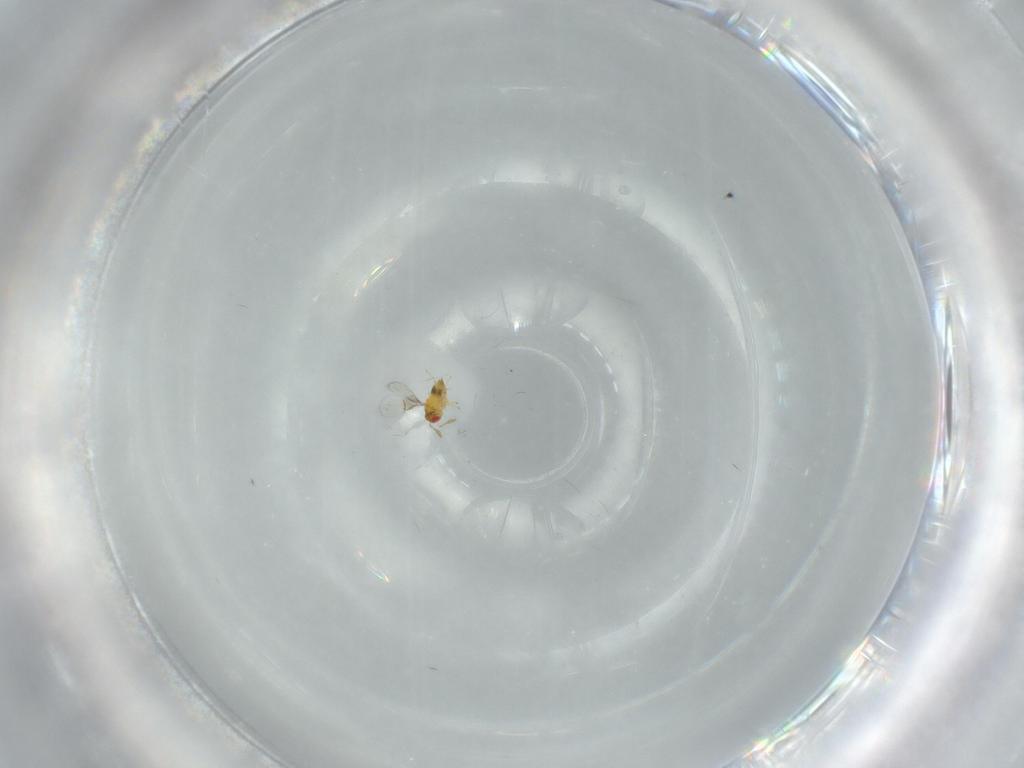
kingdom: Animalia
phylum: Arthropoda
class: Insecta
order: Hymenoptera
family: Trichogrammatidae
